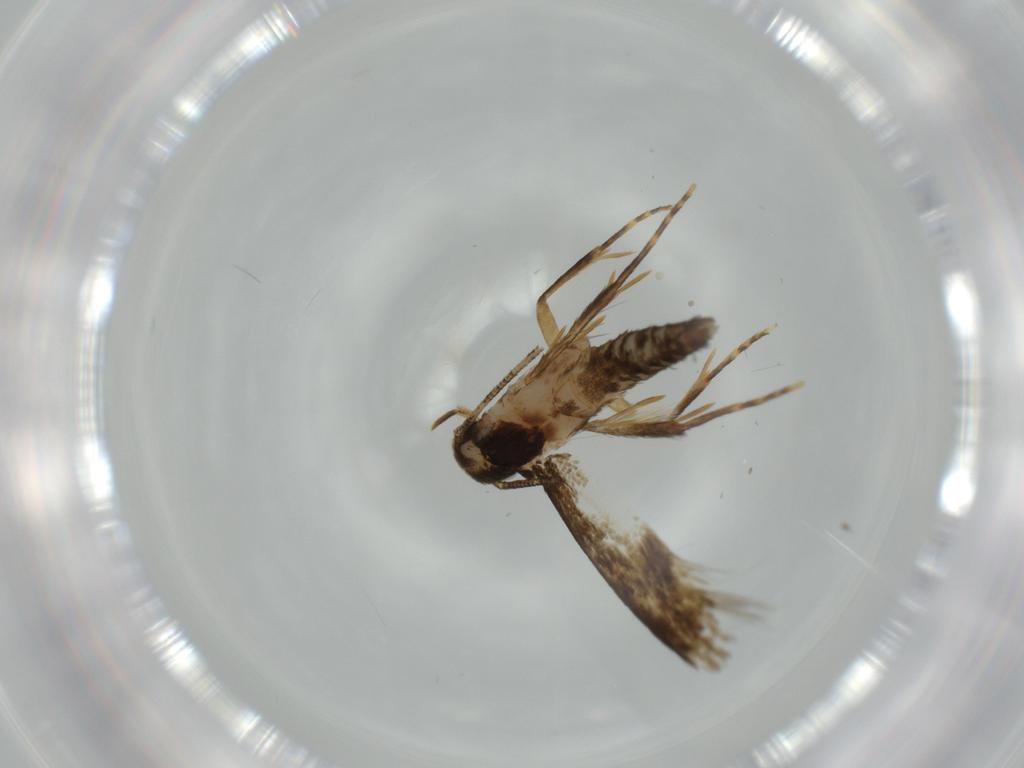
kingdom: Animalia
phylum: Arthropoda
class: Insecta
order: Lepidoptera
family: Tineidae
